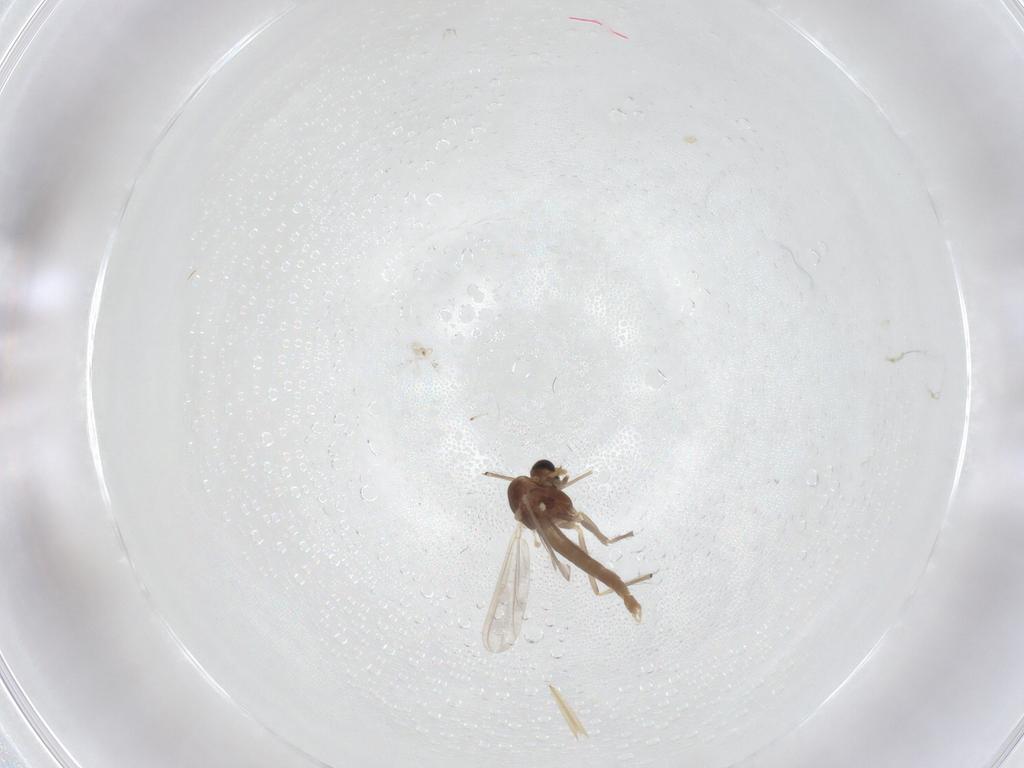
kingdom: Animalia
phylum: Arthropoda
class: Insecta
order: Diptera
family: Chironomidae
